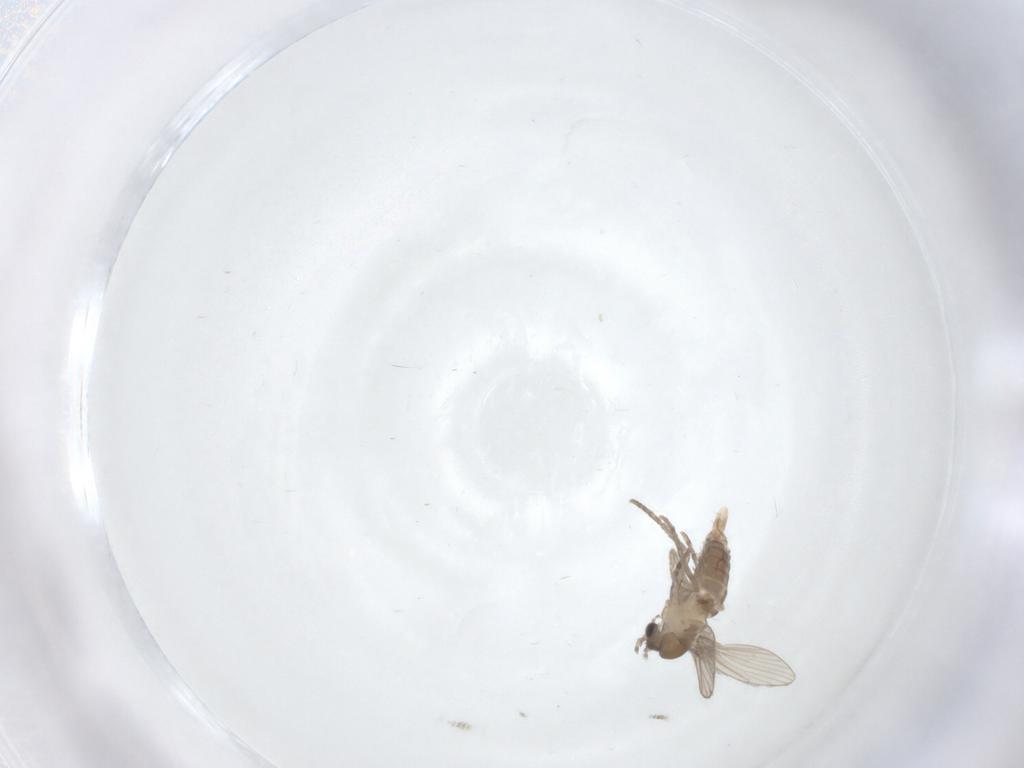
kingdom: Animalia
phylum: Arthropoda
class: Insecta
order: Diptera
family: Psychodidae
